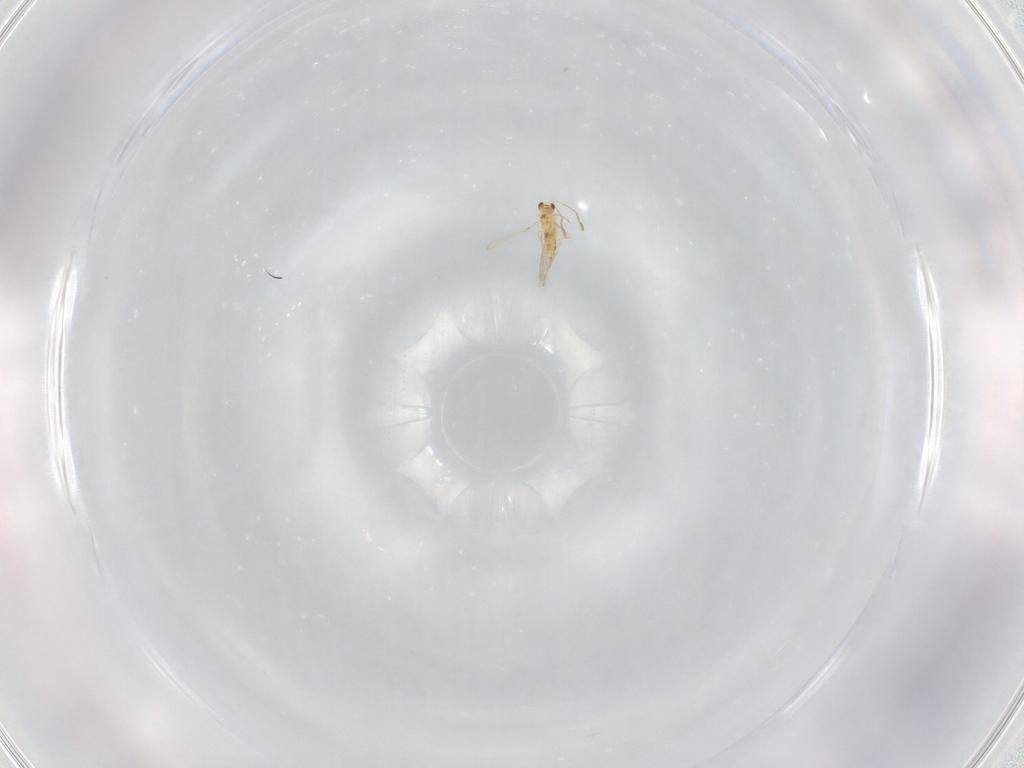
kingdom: Animalia
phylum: Arthropoda
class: Insecta
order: Hymenoptera
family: Mymaridae
